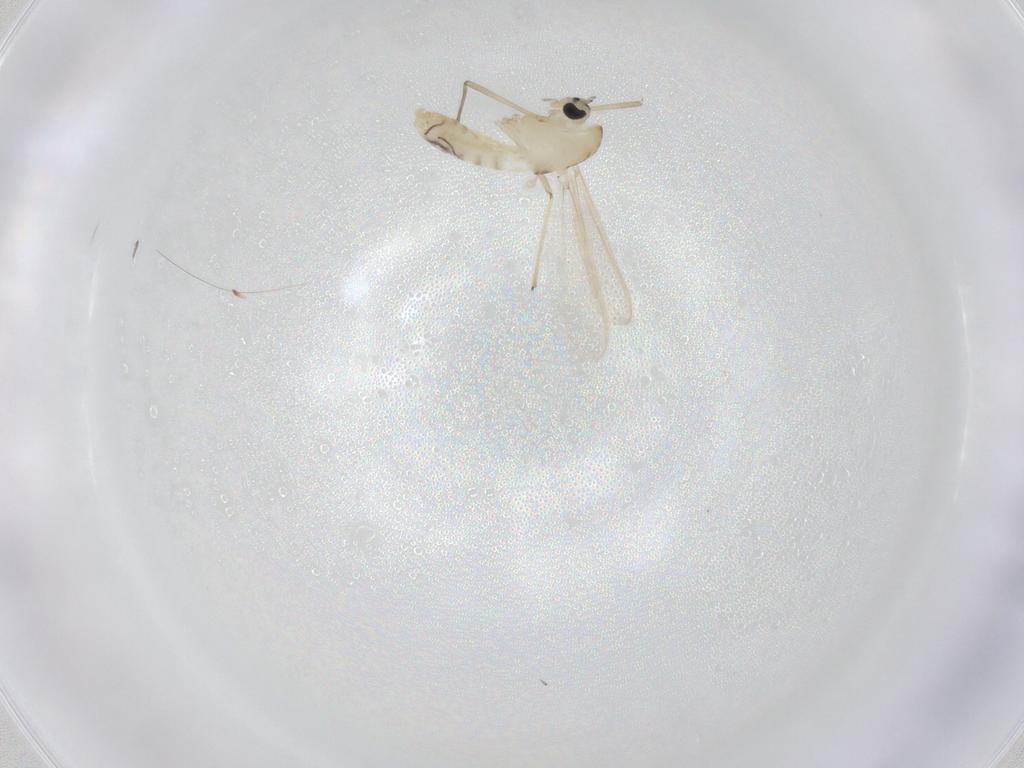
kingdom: Animalia
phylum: Arthropoda
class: Insecta
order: Diptera
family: Chironomidae
